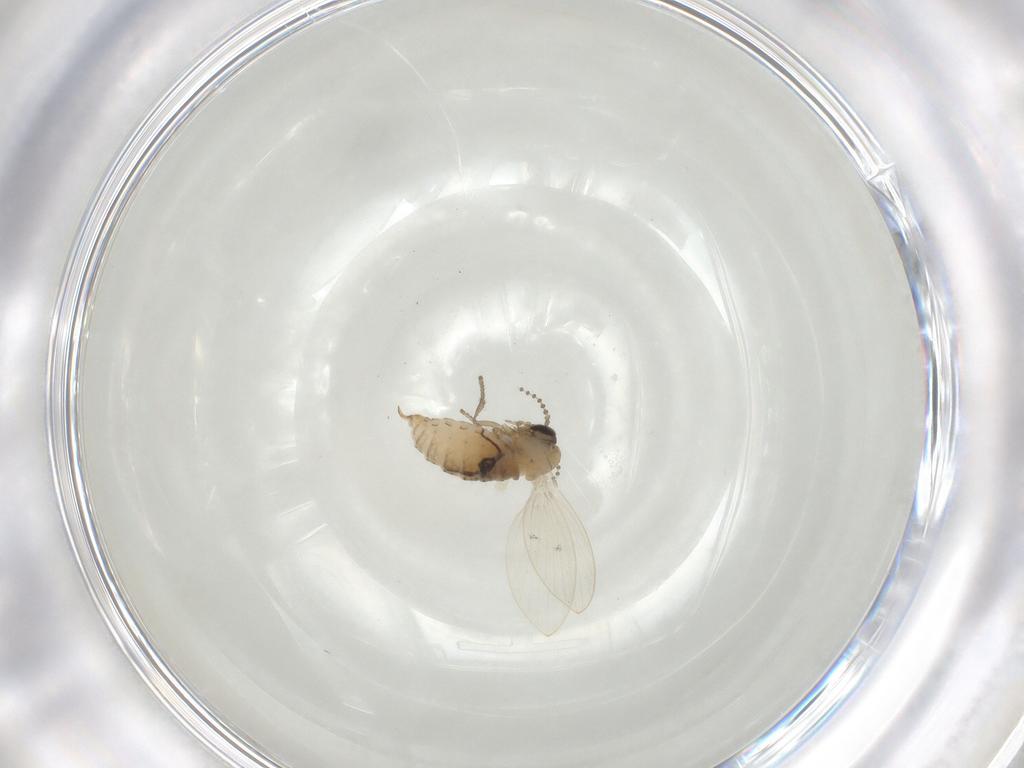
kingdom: Animalia
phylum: Arthropoda
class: Insecta
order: Diptera
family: Psychodidae
